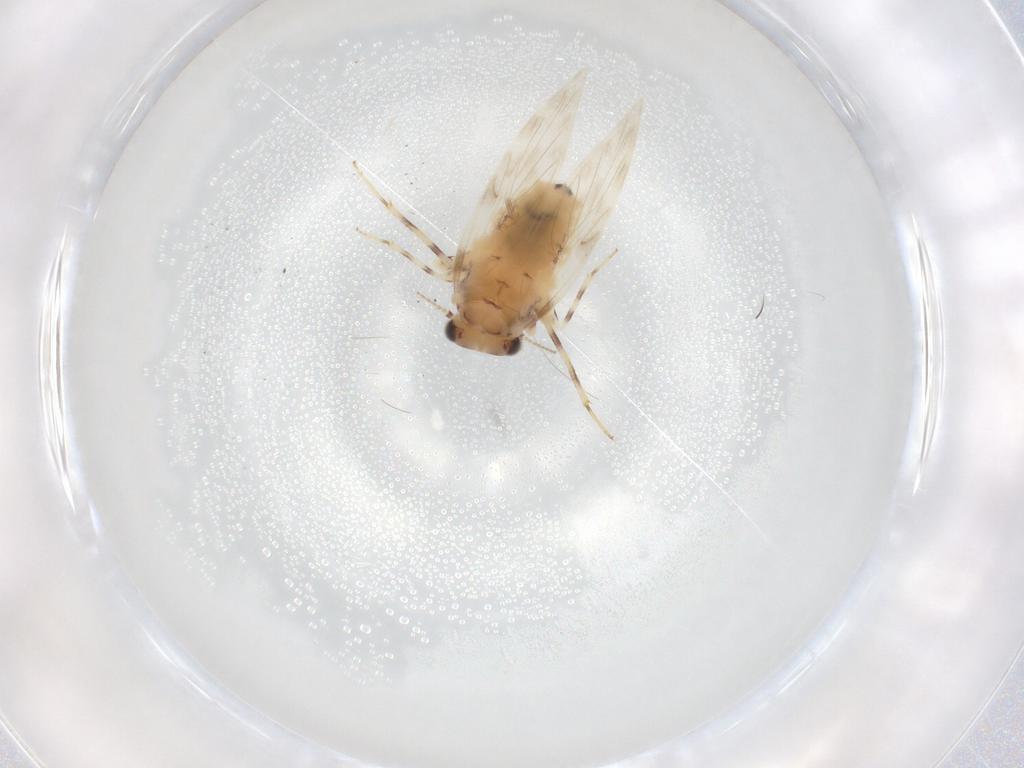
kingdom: Animalia
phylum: Arthropoda
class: Insecta
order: Psocodea
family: Lepidopsocidae
